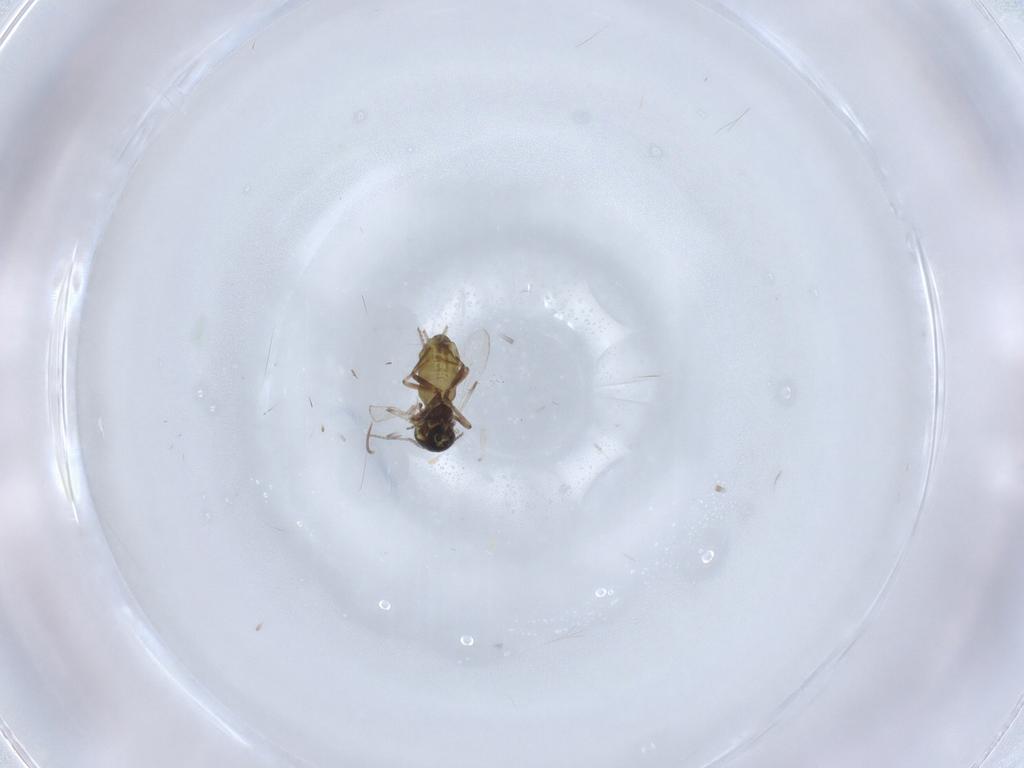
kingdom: Animalia
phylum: Arthropoda
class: Insecta
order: Diptera
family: Ceratopogonidae
